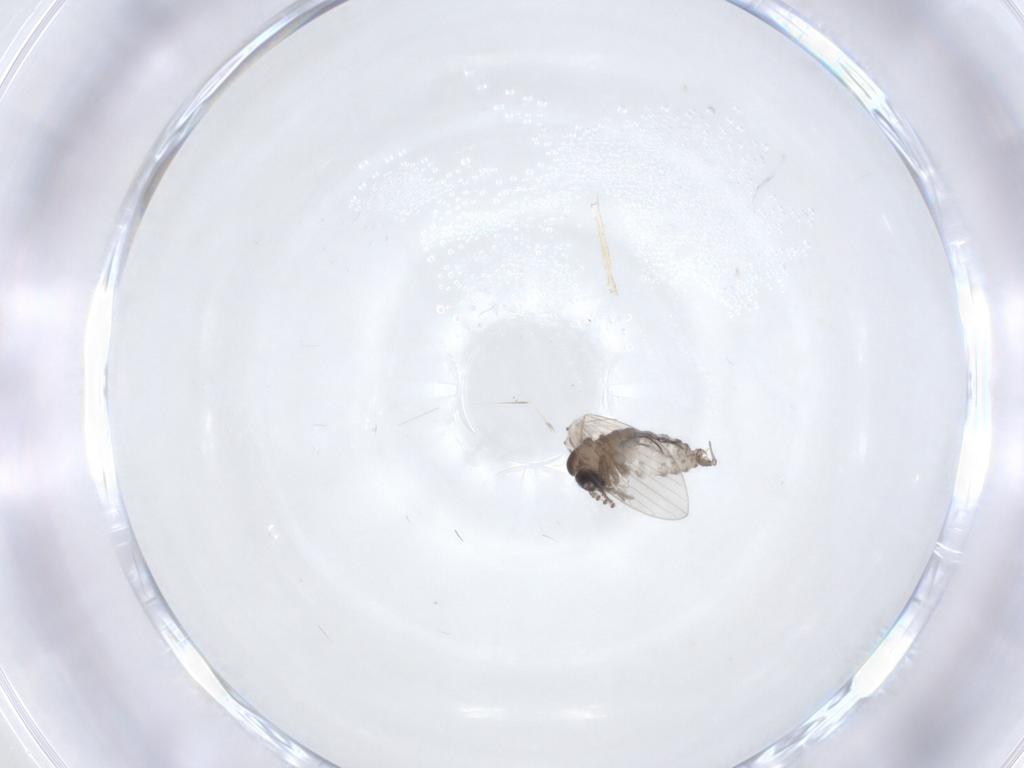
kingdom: Animalia
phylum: Arthropoda
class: Insecta
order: Diptera
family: Psychodidae
